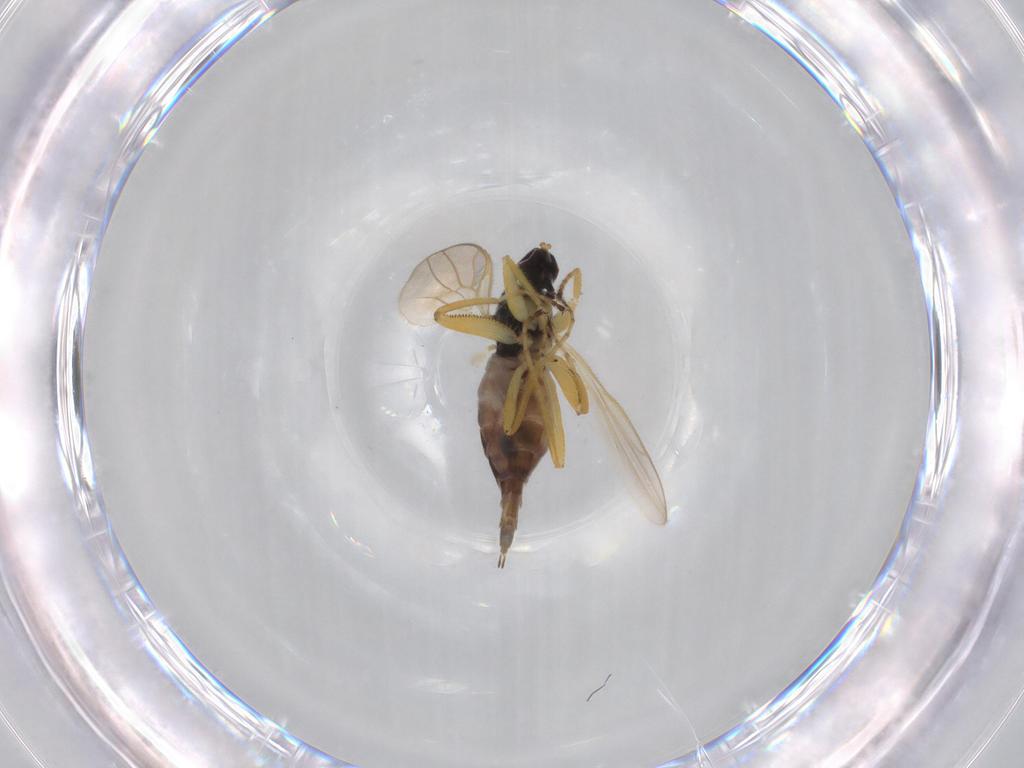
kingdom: Animalia
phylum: Arthropoda
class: Insecta
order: Diptera
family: Hybotidae
